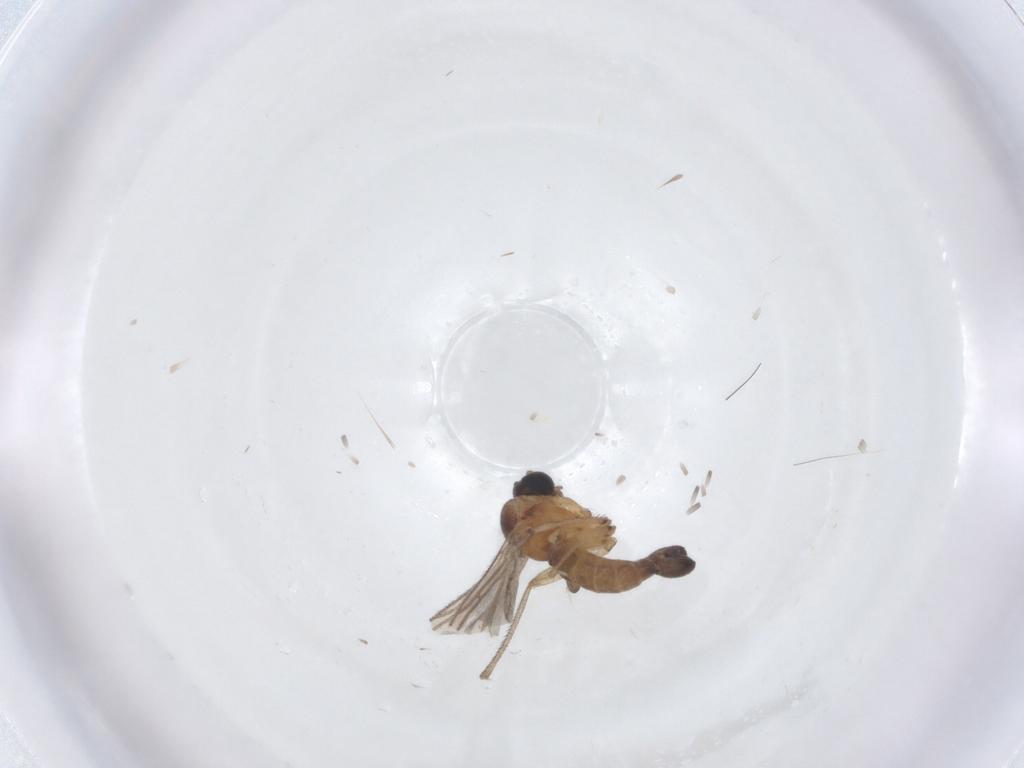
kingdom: Animalia
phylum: Arthropoda
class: Insecta
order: Diptera
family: Sciaridae
